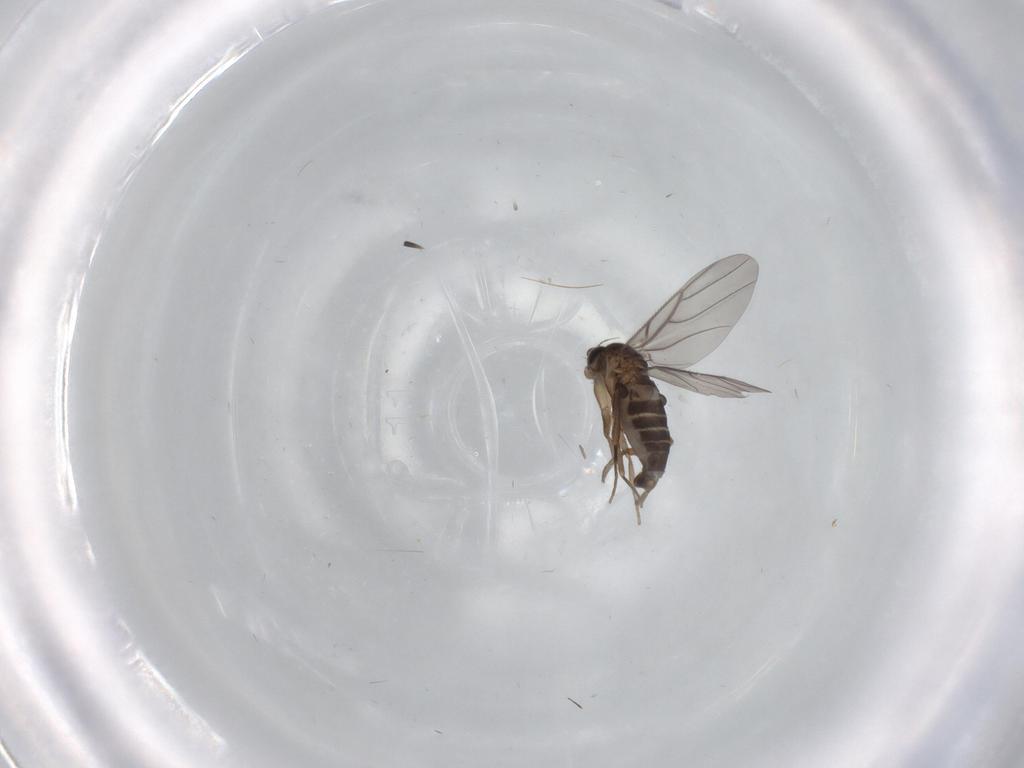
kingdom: Animalia
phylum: Arthropoda
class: Insecta
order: Diptera
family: Phoridae
